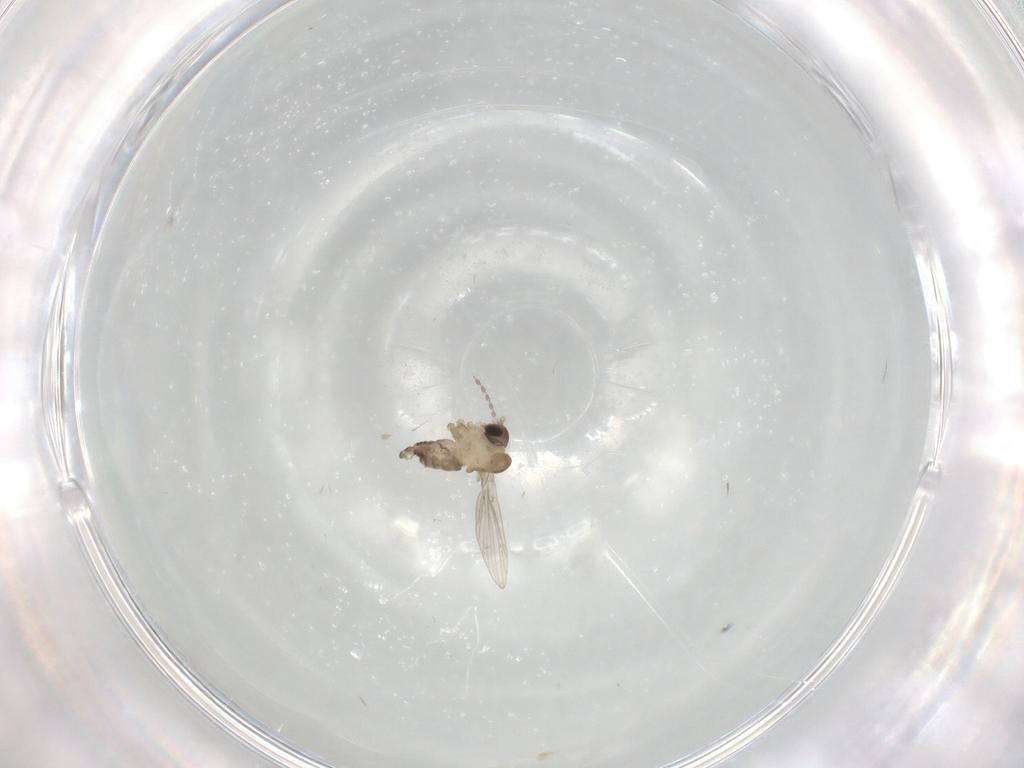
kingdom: Animalia
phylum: Arthropoda
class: Insecta
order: Diptera
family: Psychodidae
